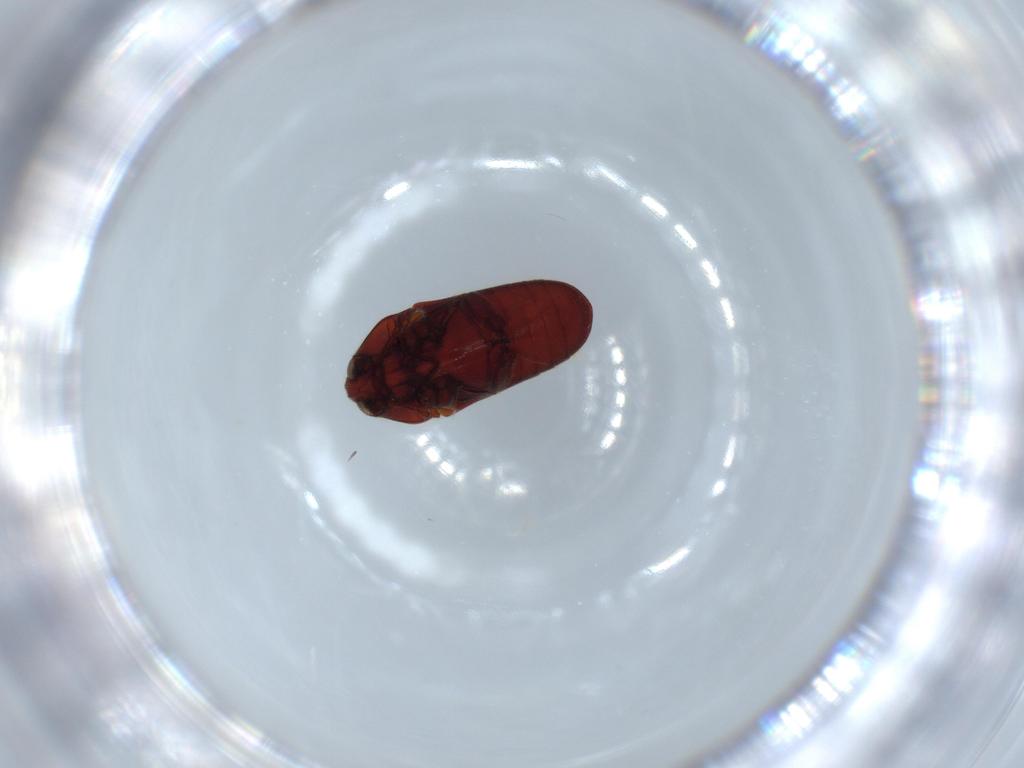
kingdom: Animalia
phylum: Arthropoda
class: Insecta
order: Coleoptera
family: Throscidae
